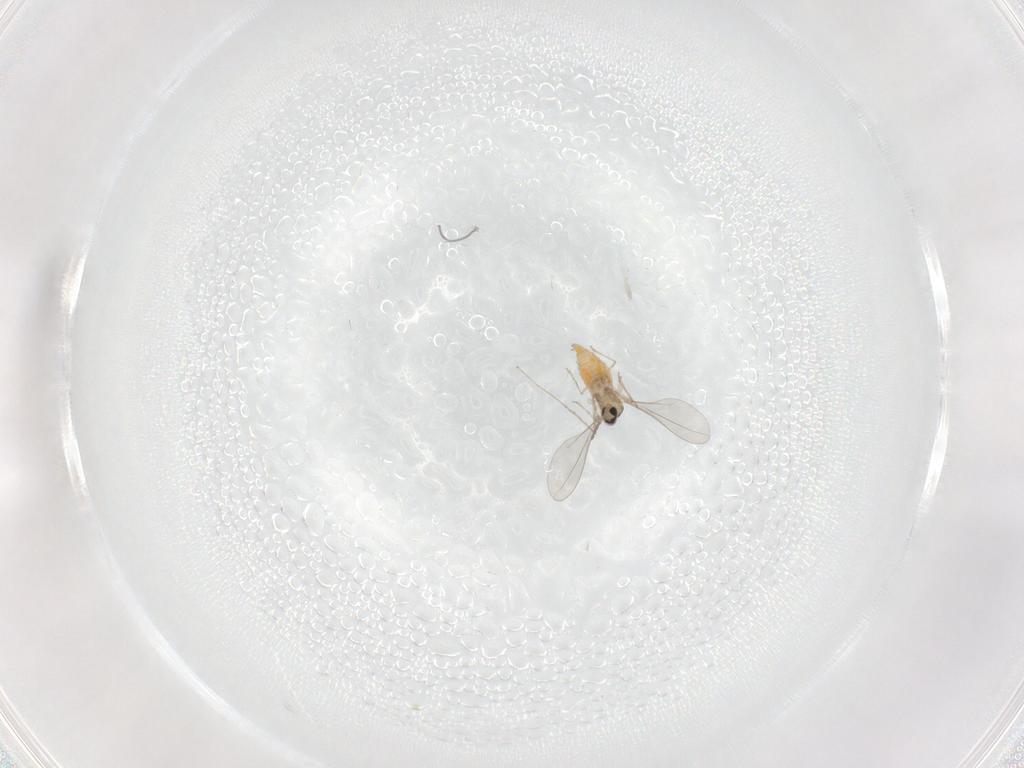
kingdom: Animalia
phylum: Arthropoda
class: Insecta
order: Diptera
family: Cecidomyiidae
